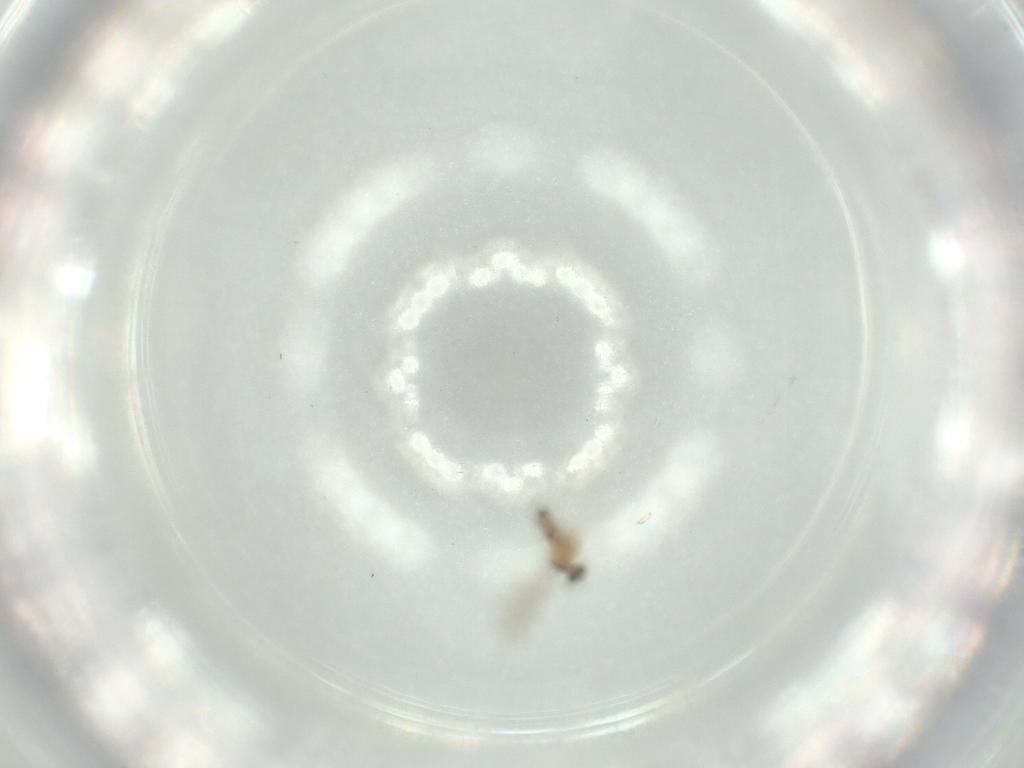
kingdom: Animalia
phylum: Arthropoda
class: Insecta
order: Diptera
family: Cecidomyiidae
